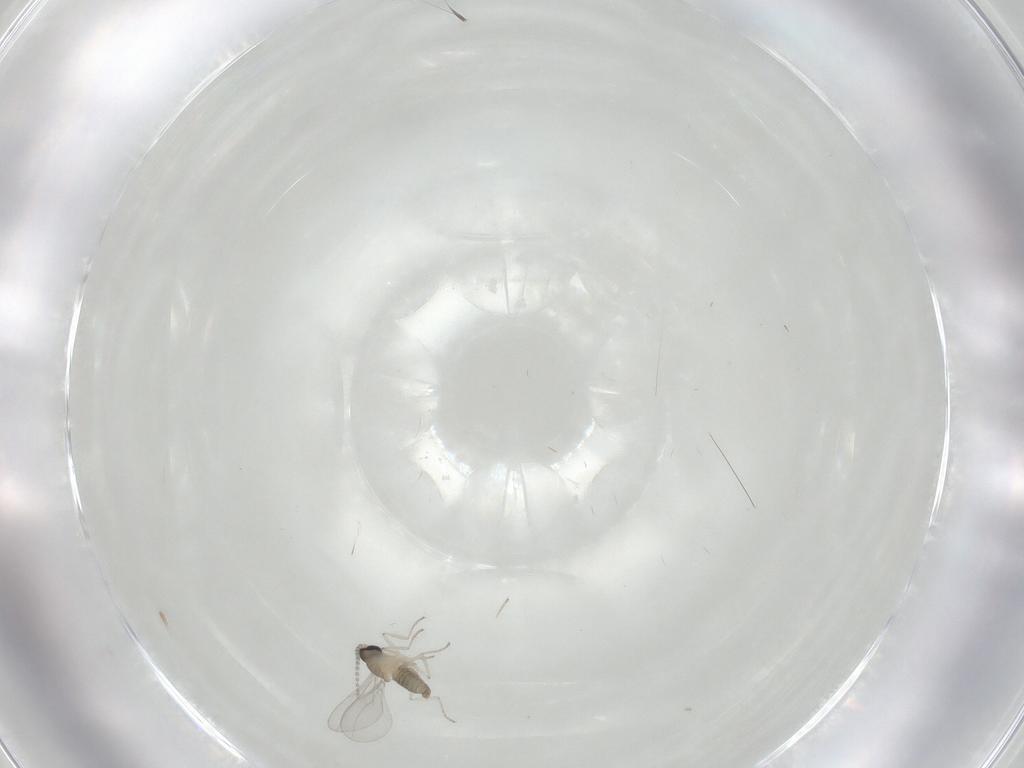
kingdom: Animalia
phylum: Arthropoda
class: Insecta
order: Diptera
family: Cecidomyiidae
